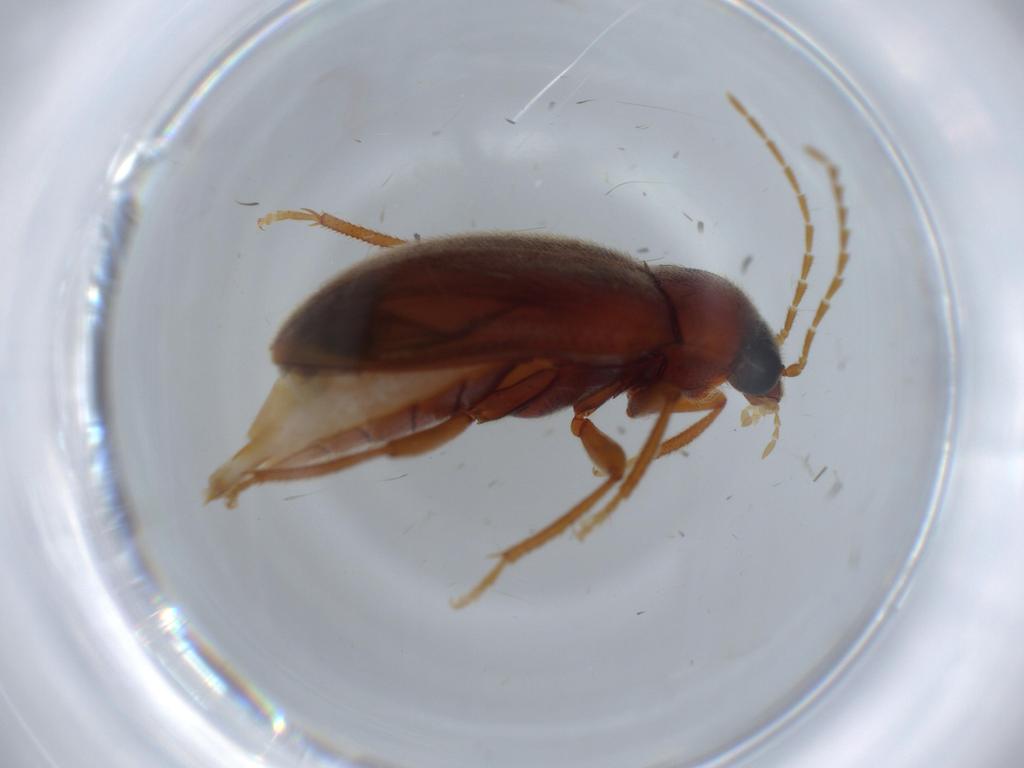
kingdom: Animalia
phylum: Arthropoda
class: Insecta
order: Coleoptera
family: Ptilodactylidae
